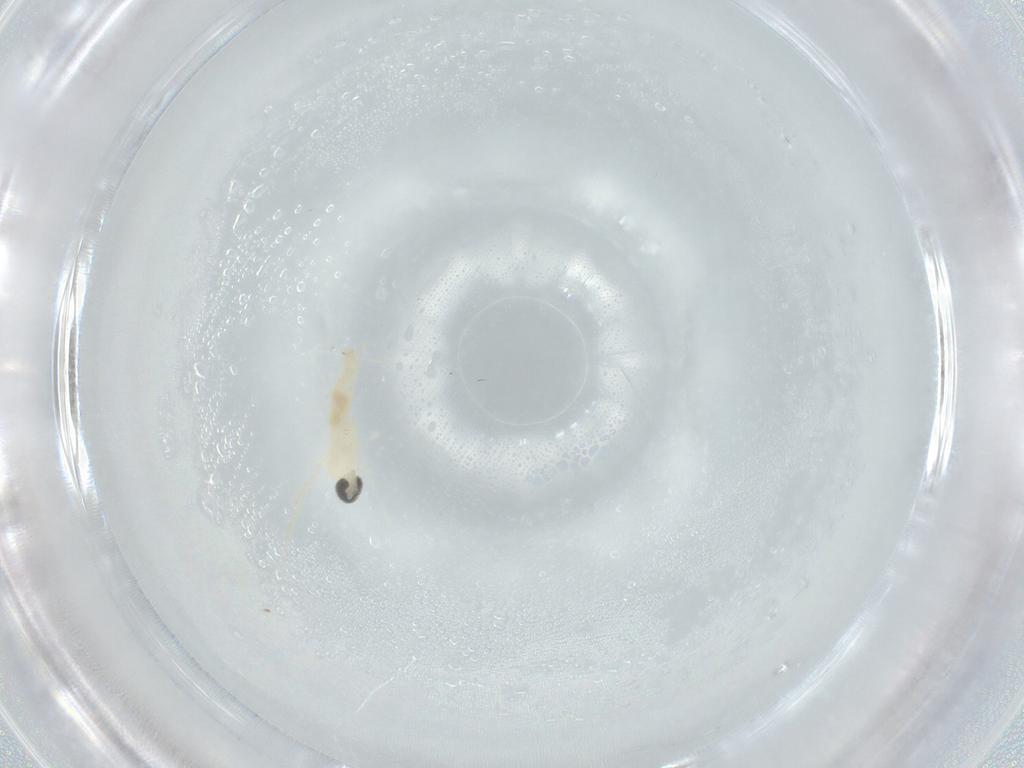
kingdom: Animalia
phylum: Arthropoda
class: Insecta
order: Diptera
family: Cecidomyiidae
